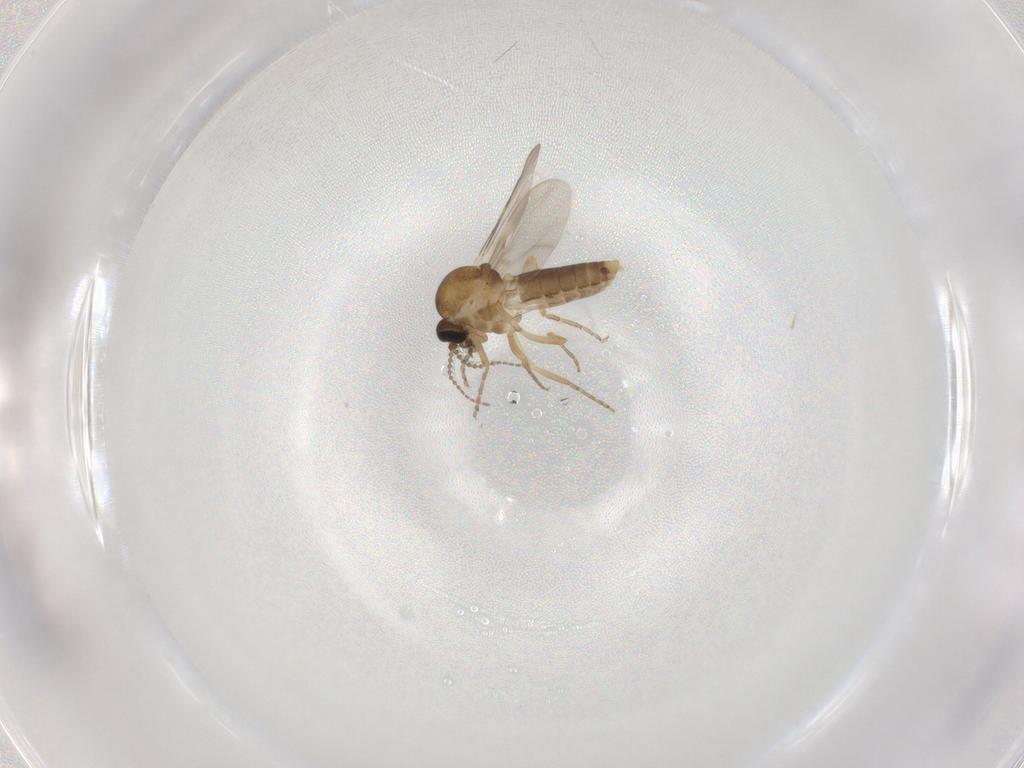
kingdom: Animalia
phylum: Arthropoda
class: Insecta
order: Diptera
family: Ceratopogonidae
